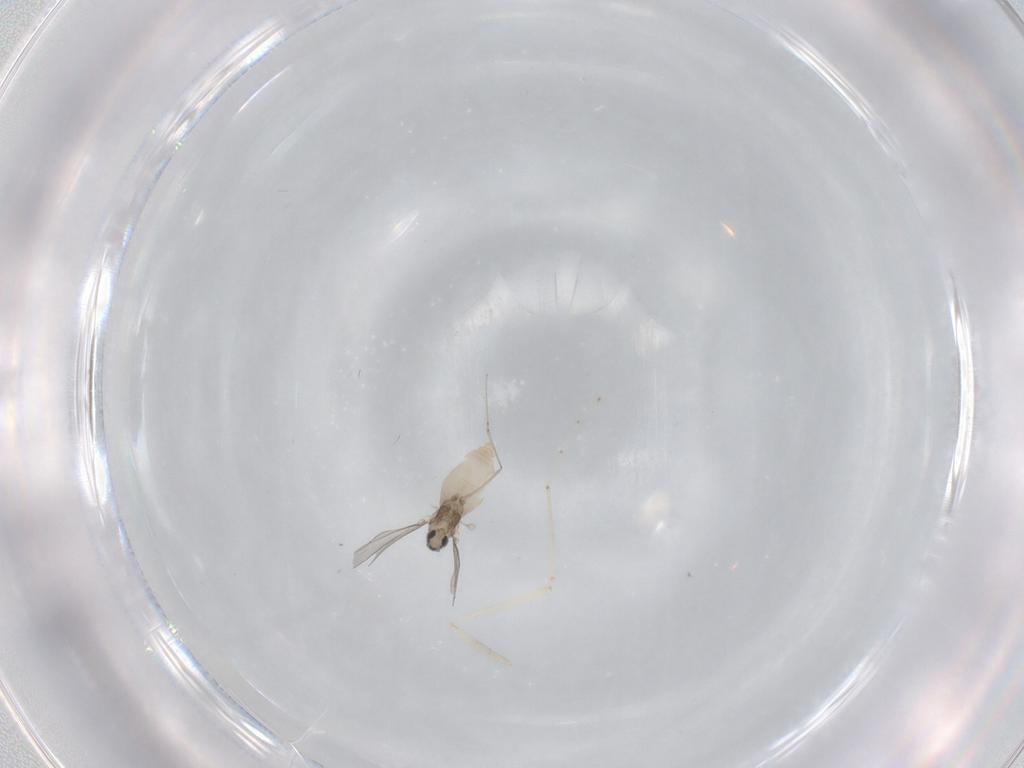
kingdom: Animalia
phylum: Arthropoda
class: Insecta
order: Diptera
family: Cecidomyiidae
